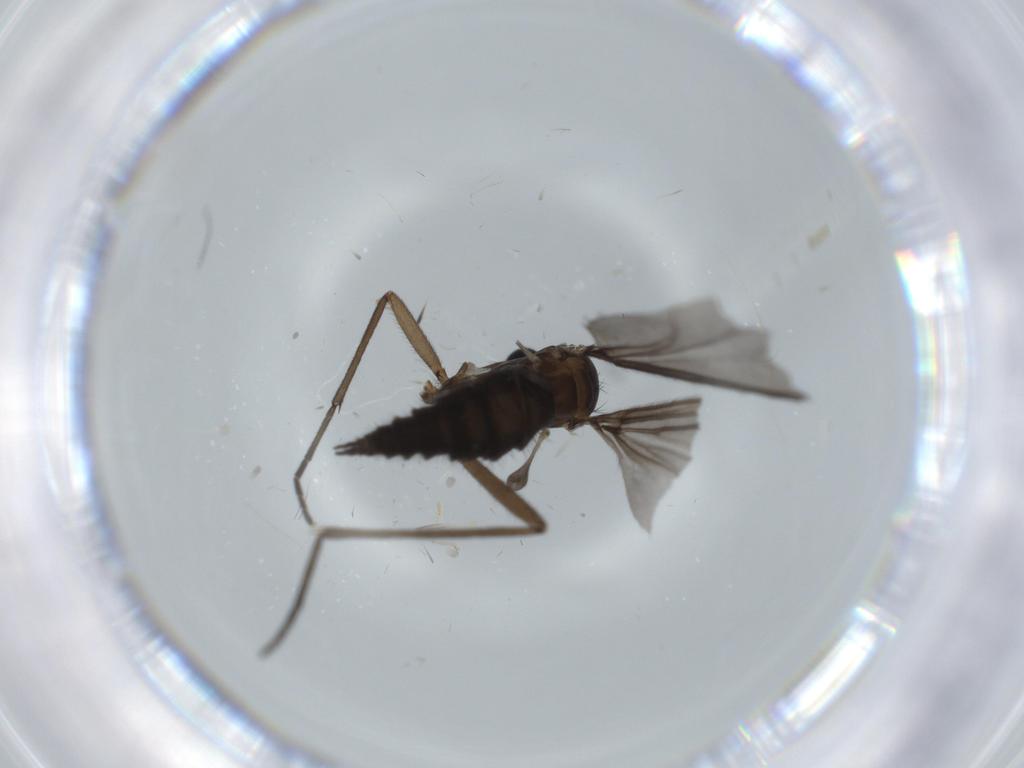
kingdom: Animalia
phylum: Arthropoda
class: Insecta
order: Diptera
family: Sciaridae
